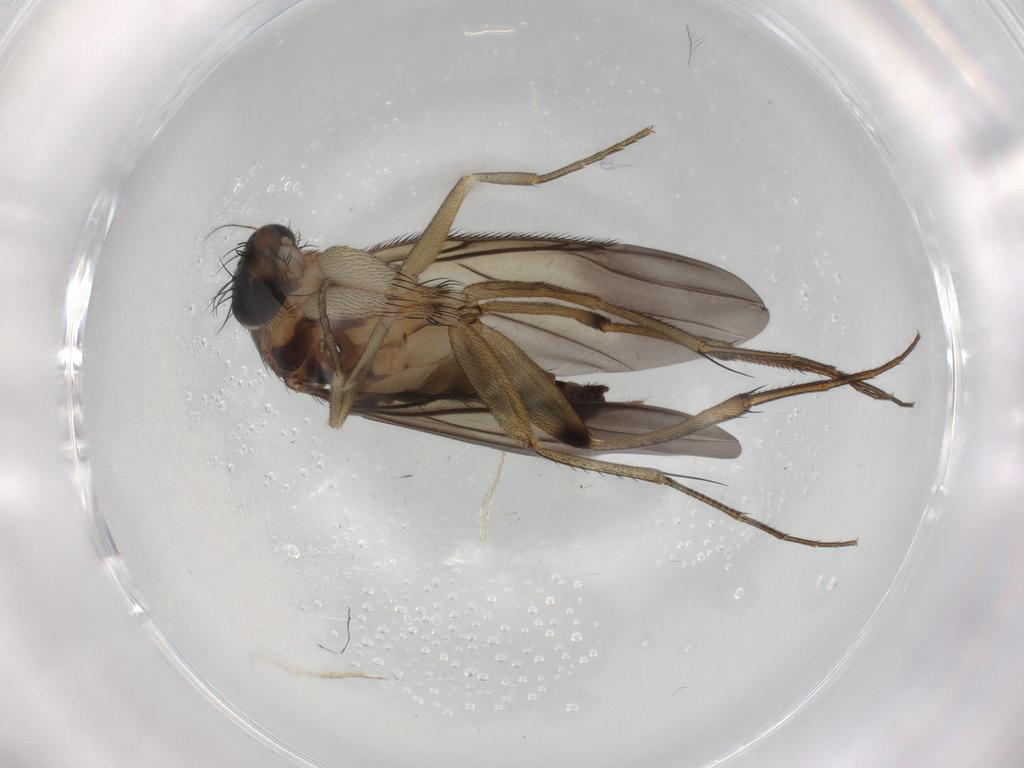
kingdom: Animalia
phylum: Arthropoda
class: Insecta
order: Diptera
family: Phoridae
